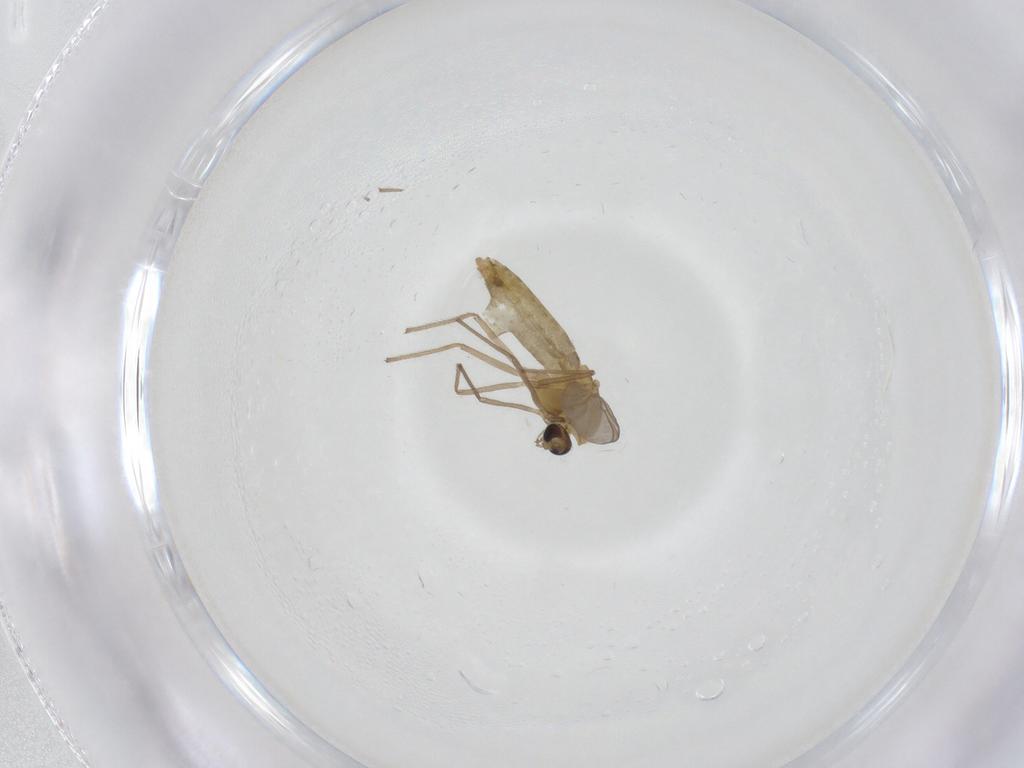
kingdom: Animalia
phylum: Arthropoda
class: Insecta
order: Diptera
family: Chironomidae
